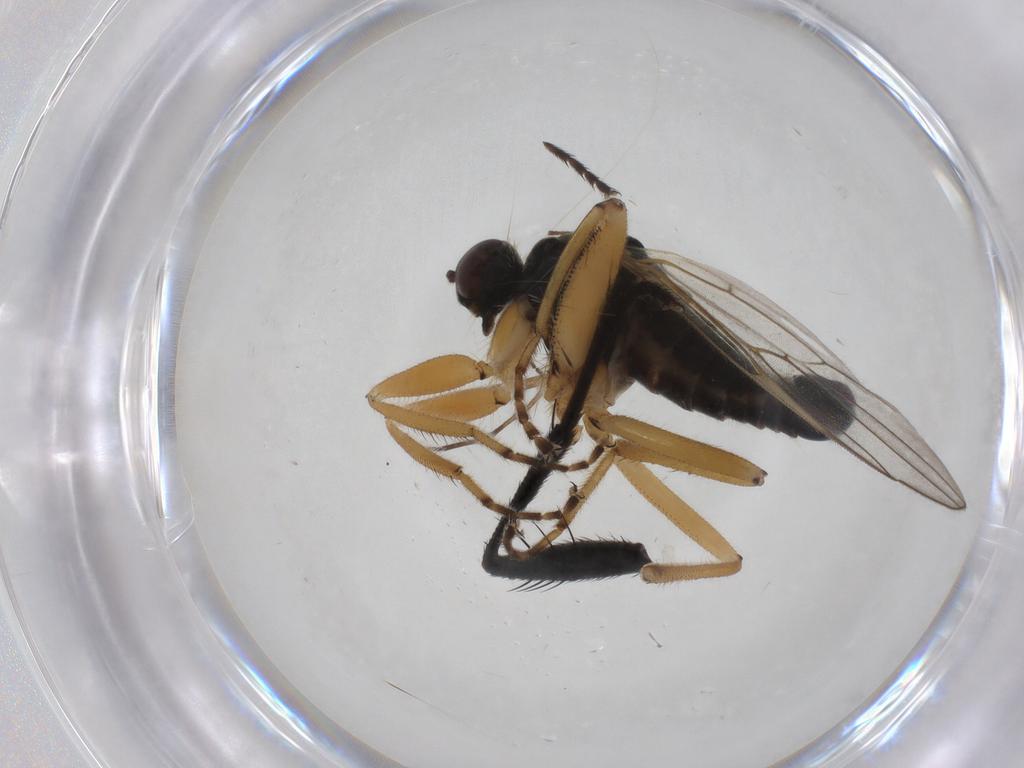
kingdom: Animalia
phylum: Arthropoda
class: Insecta
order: Diptera
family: Hybotidae
